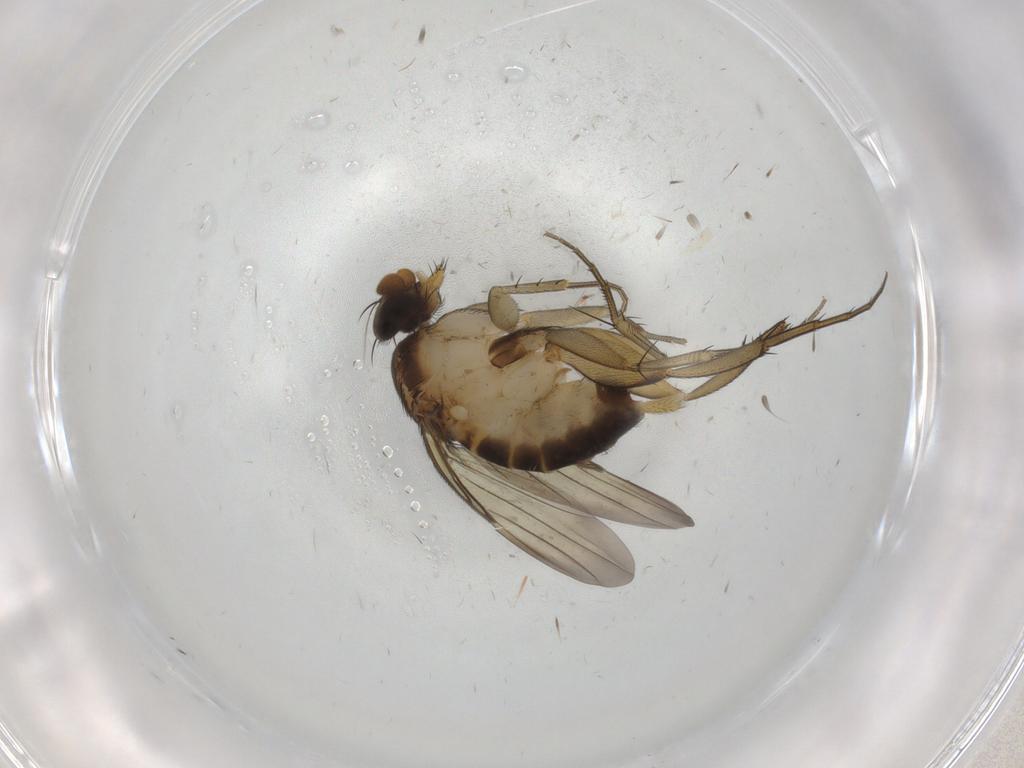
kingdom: Animalia
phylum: Arthropoda
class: Insecta
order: Diptera
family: Phoridae
